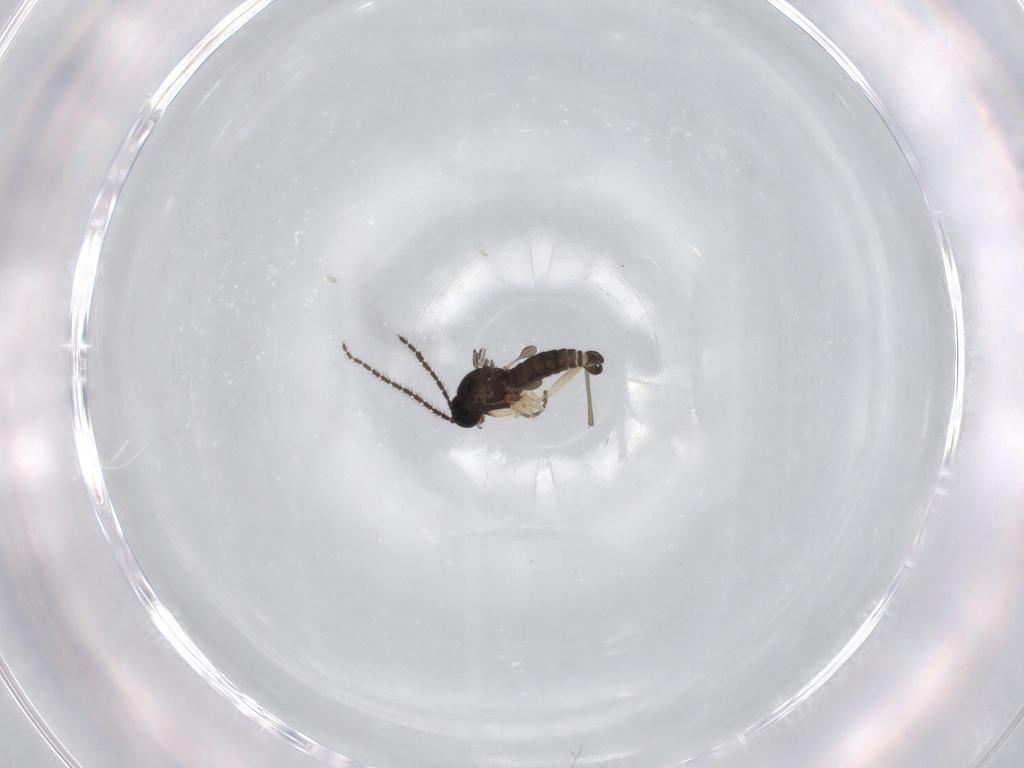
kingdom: Animalia
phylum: Arthropoda
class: Insecta
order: Diptera
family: Sciaridae
